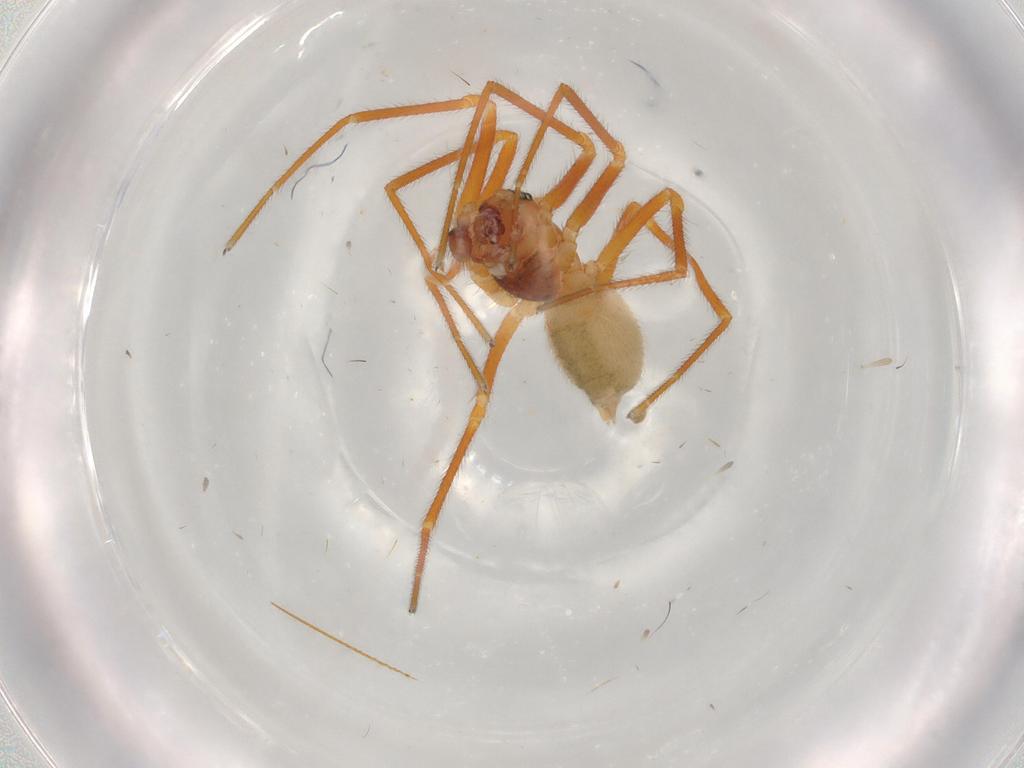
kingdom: Animalia
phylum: Arthropoda
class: Arachnida
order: Araneae
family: Linyphiidae
